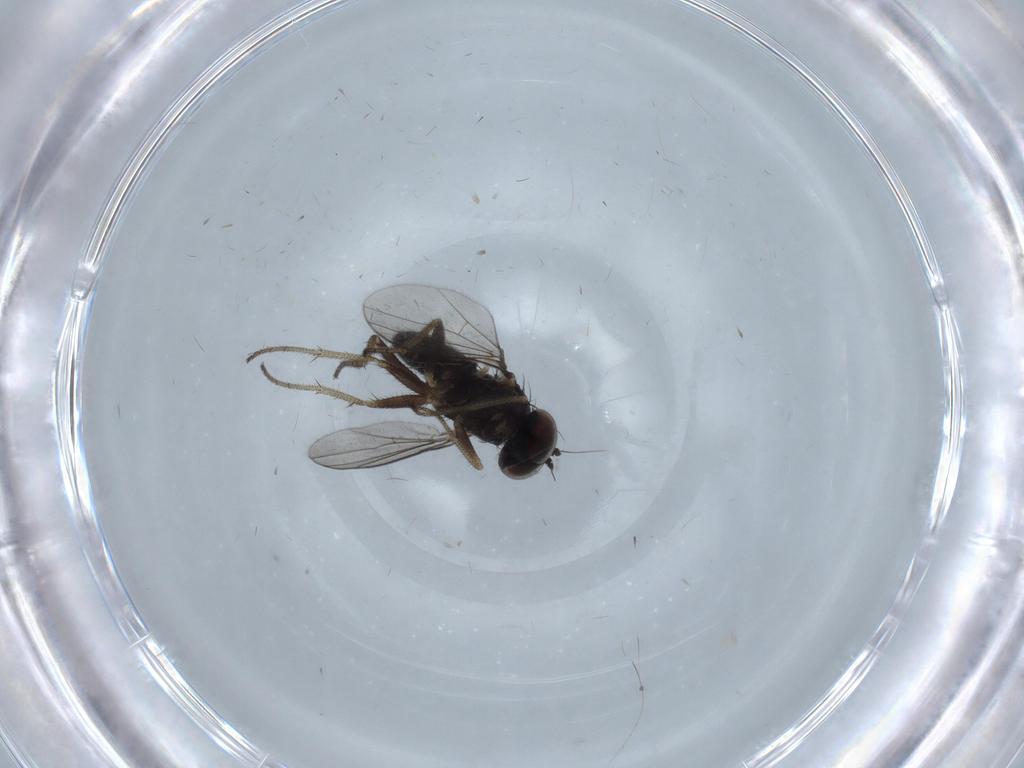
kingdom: Animalia
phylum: Arthropoda
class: Insecta
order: Diptera
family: Dolichopodidae
